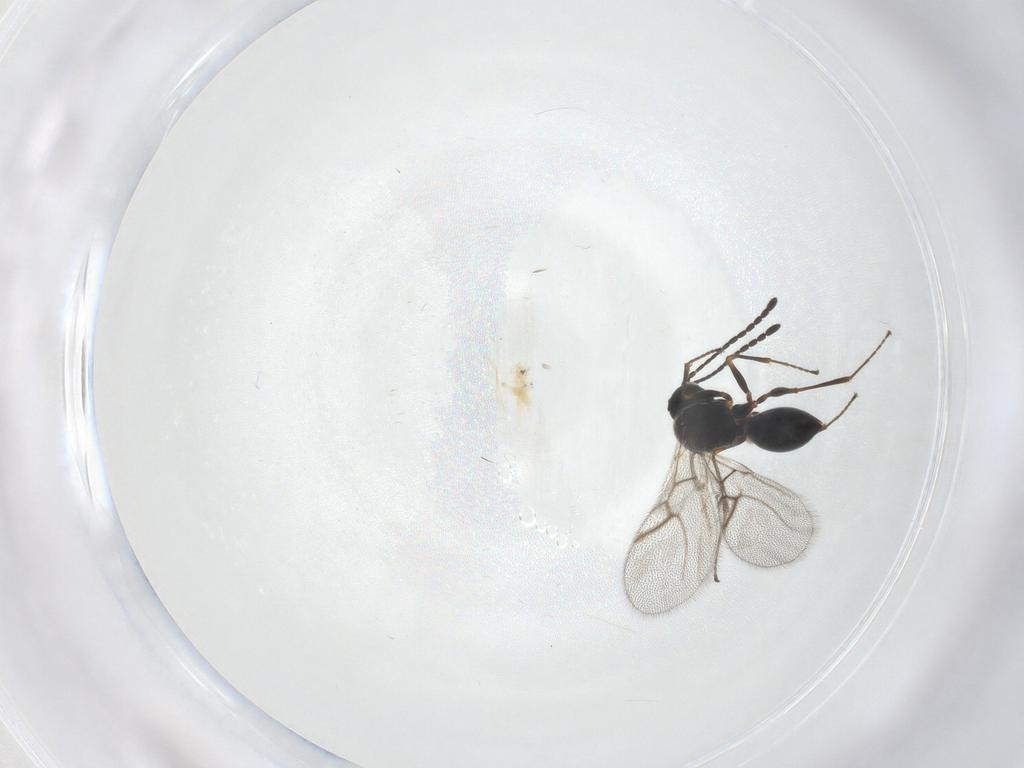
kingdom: Animalia
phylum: Arthropoda
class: Insecta
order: Hymenoptera
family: Figitidae
